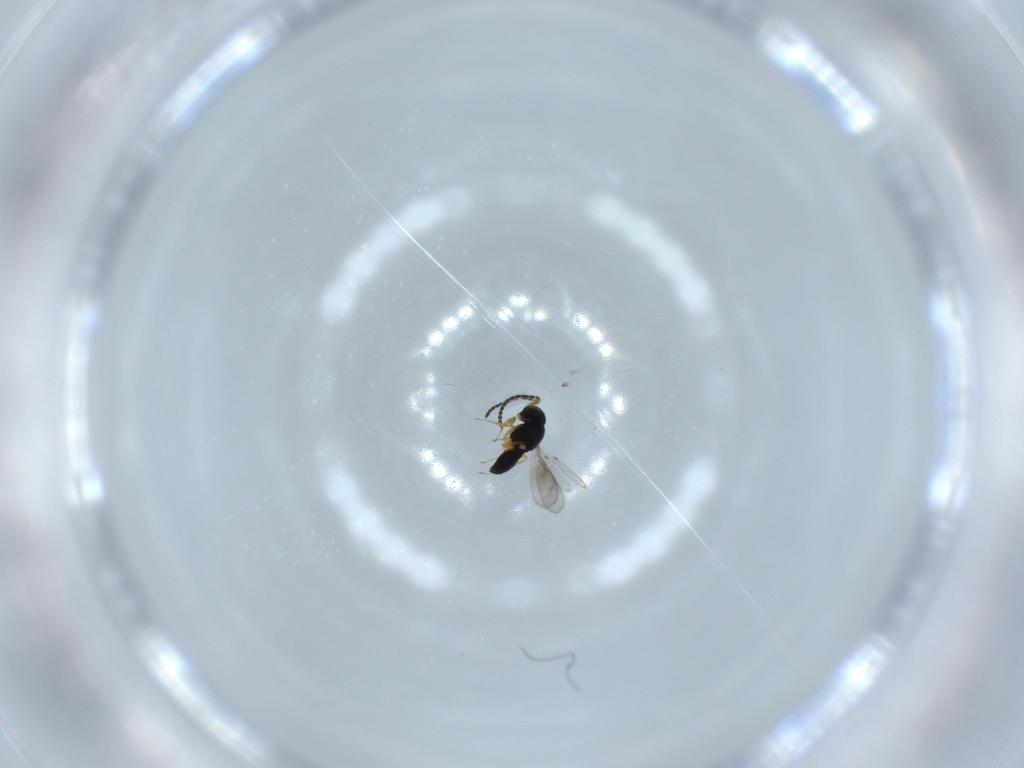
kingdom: Animalia
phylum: Arthropoda
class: Insecta
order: Hymenoptera
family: Scelionidae
